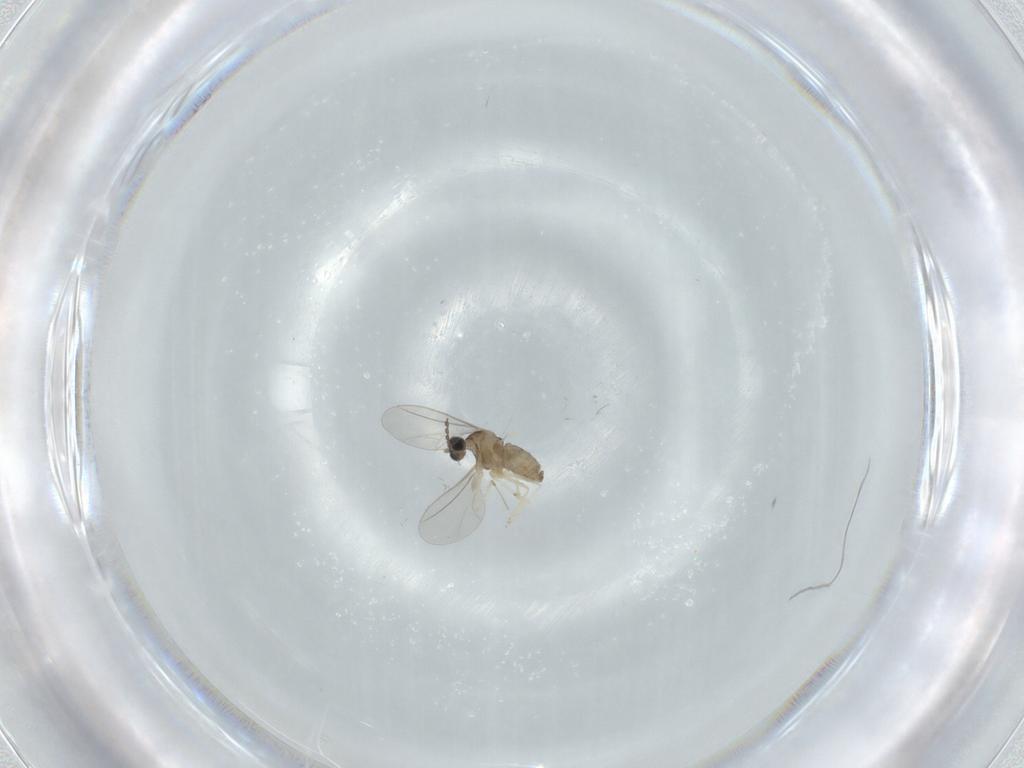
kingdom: Animalia
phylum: Arthropoda
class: Insecta
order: Diptera
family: Cecidomyiidae
